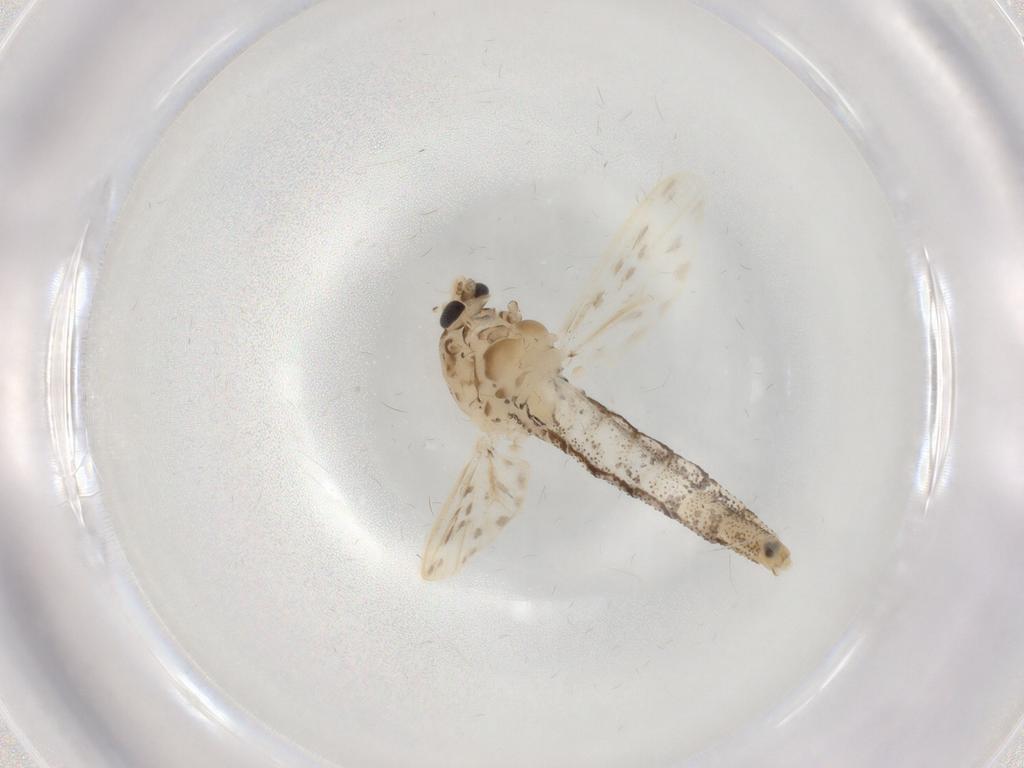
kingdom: Animalia
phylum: Arthropoda
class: Insecta
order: Diptera
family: Chaoboridae
